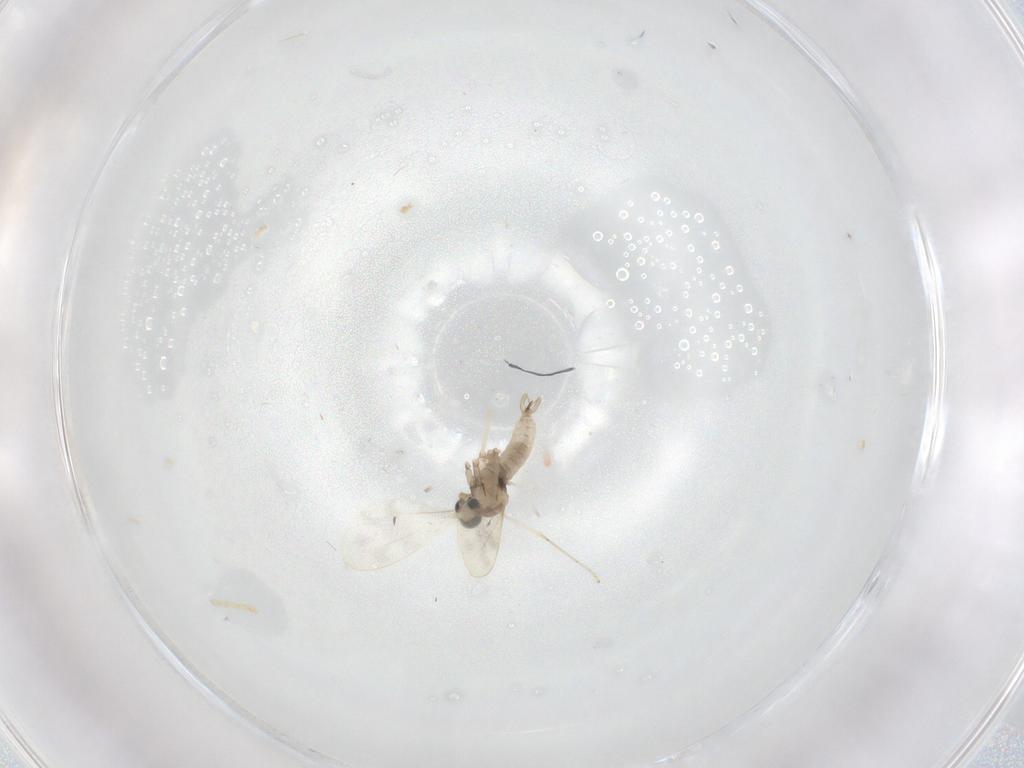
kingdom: Animalia
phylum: Arthropoda
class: Insecta
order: Diptera
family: Cecidomyiidae
